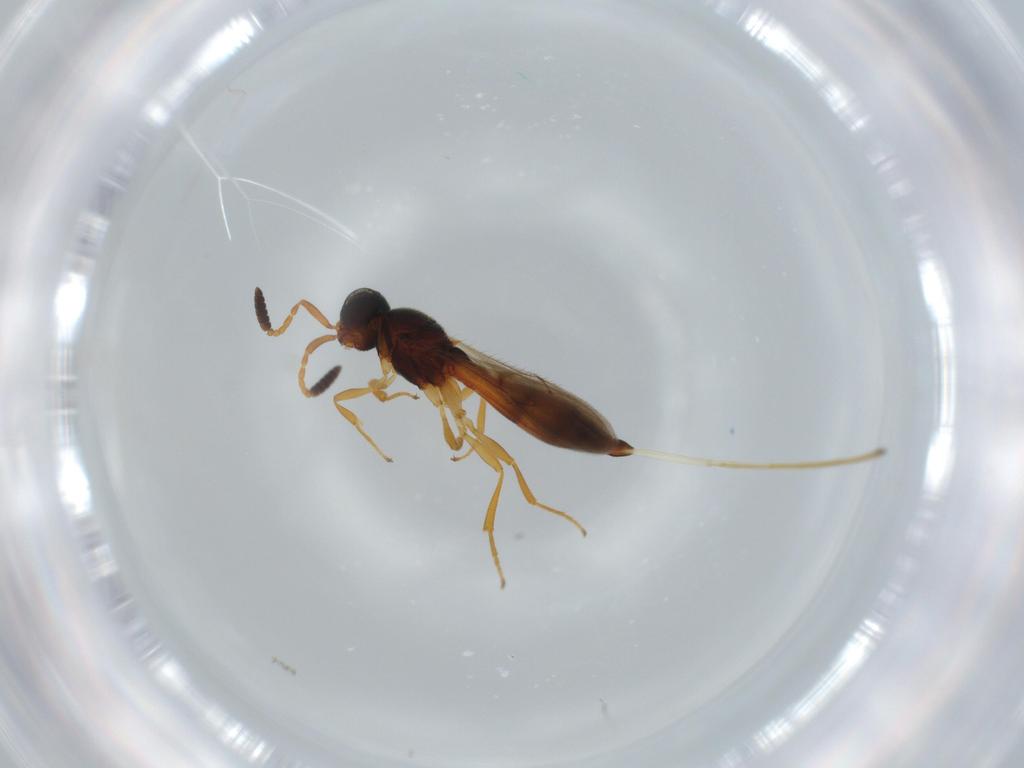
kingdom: Animalia
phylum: Arthropoda
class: Insecta
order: Hymenoptera
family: Scelionidae
